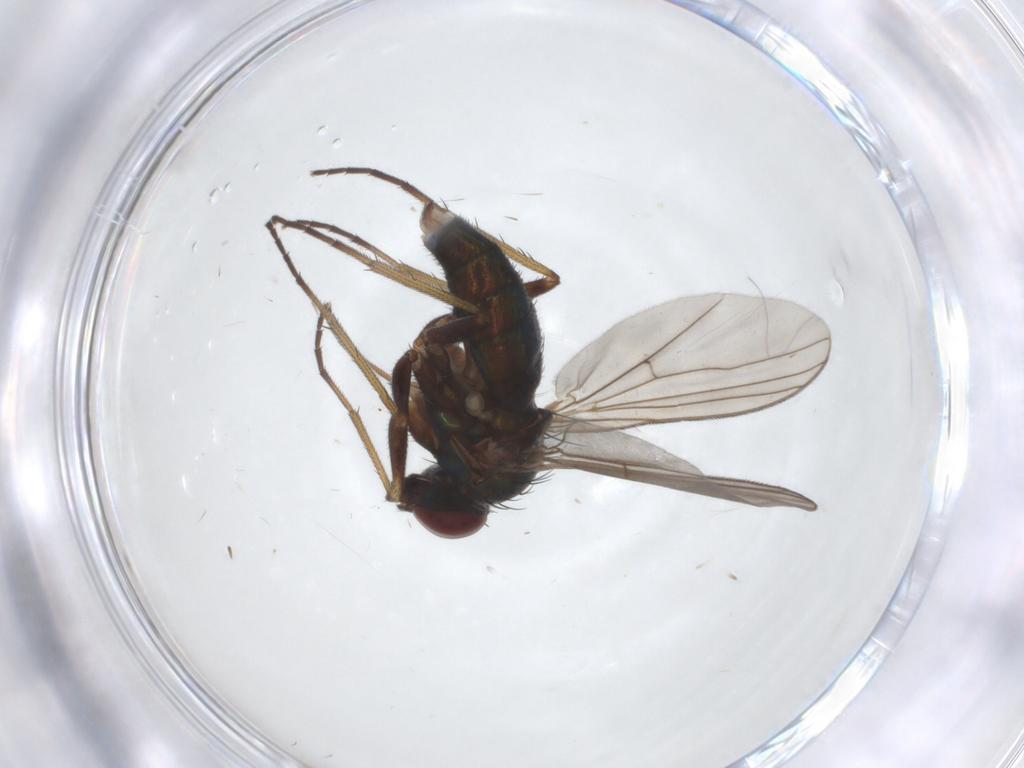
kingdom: Animalia
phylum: Arthropoda
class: Insecta
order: Diptera
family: Dolichopodidae
